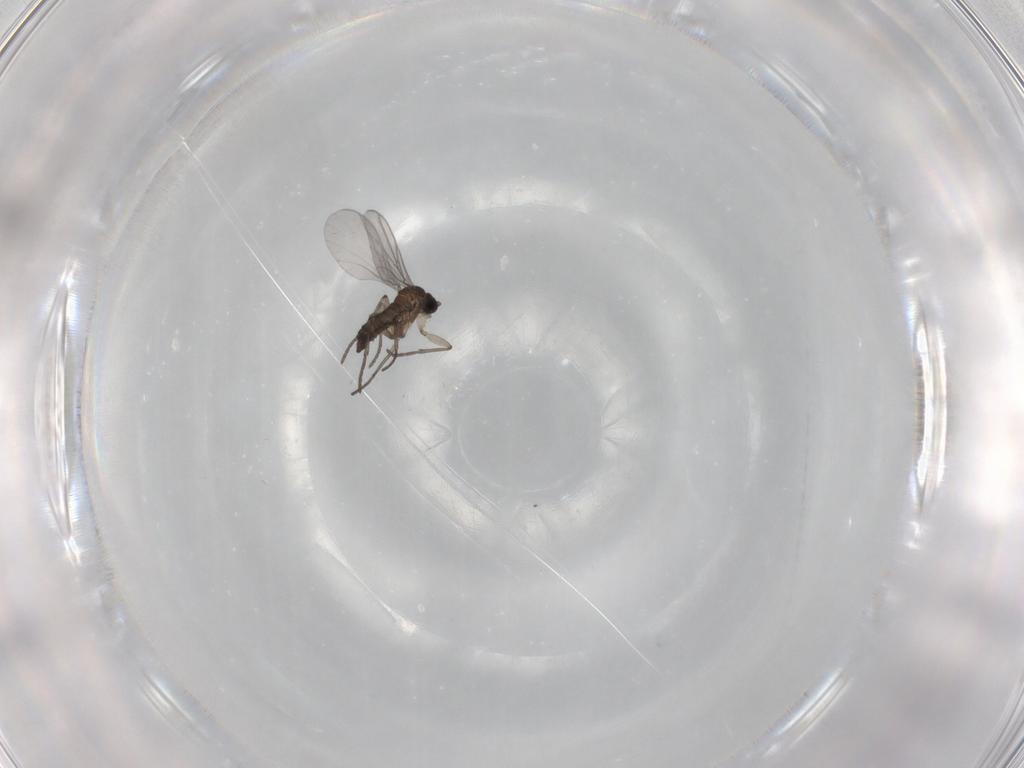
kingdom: Animalia
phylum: Arthropoda
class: Insecta
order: Diptera
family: Sciaridae
